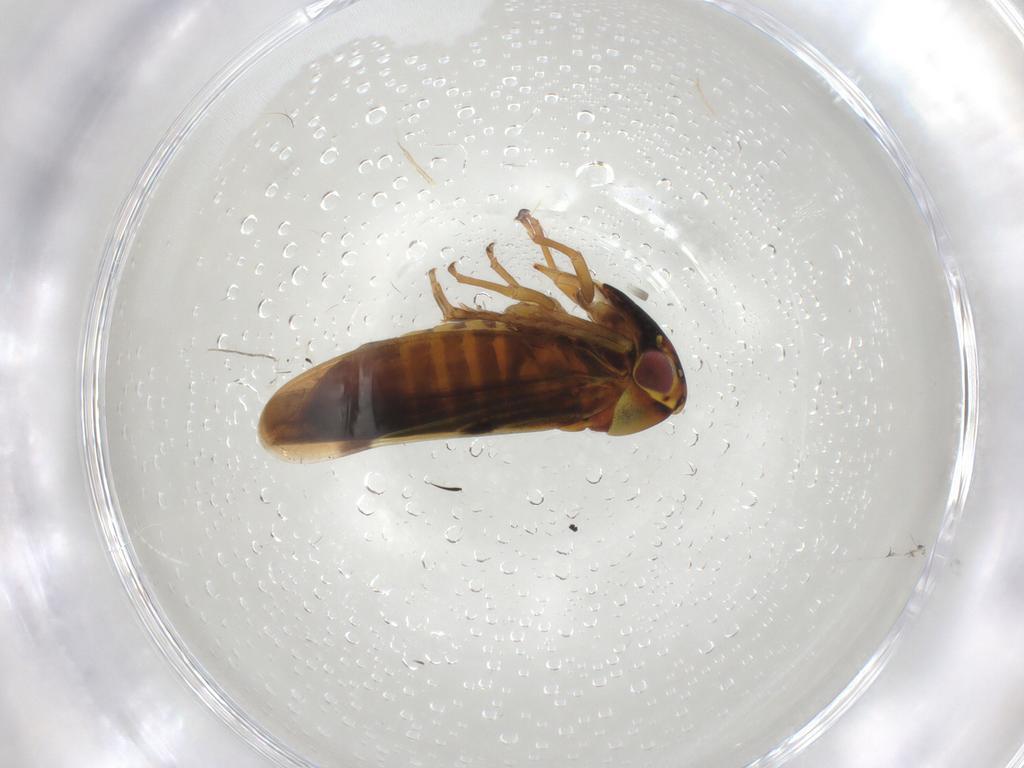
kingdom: Animalia
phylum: Arthropoda
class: Insecta
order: Hemiptera
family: Cicadellidae
